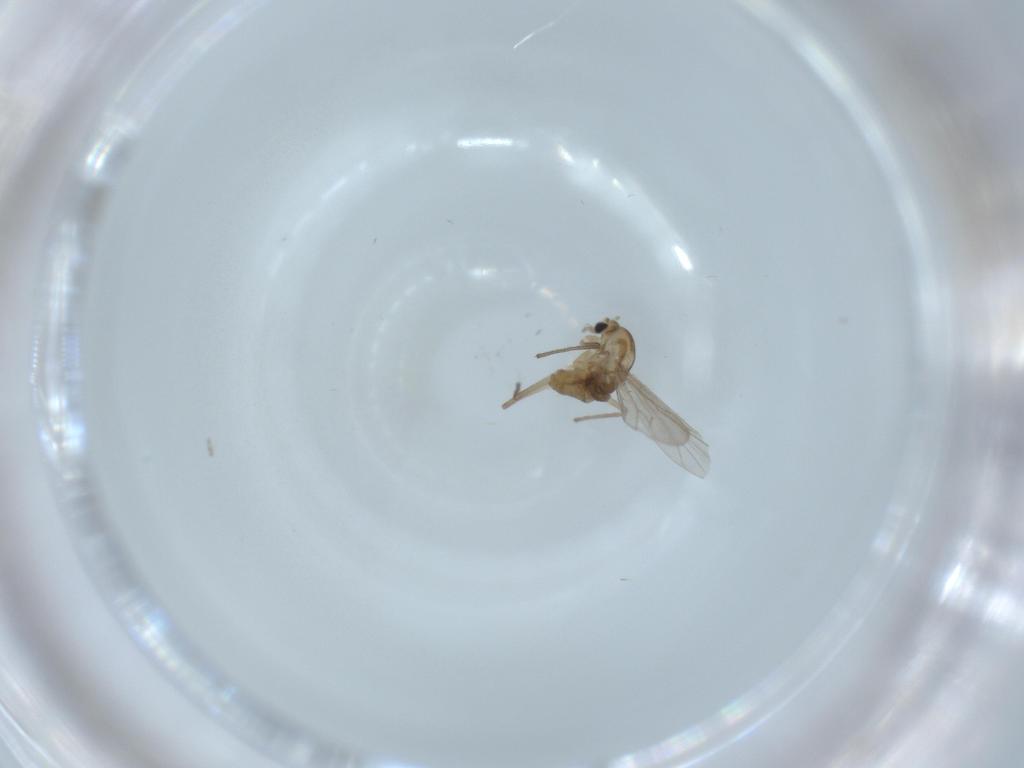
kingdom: Animalia
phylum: Arthropoda
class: Insecta
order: Diptera
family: Chironomidae
